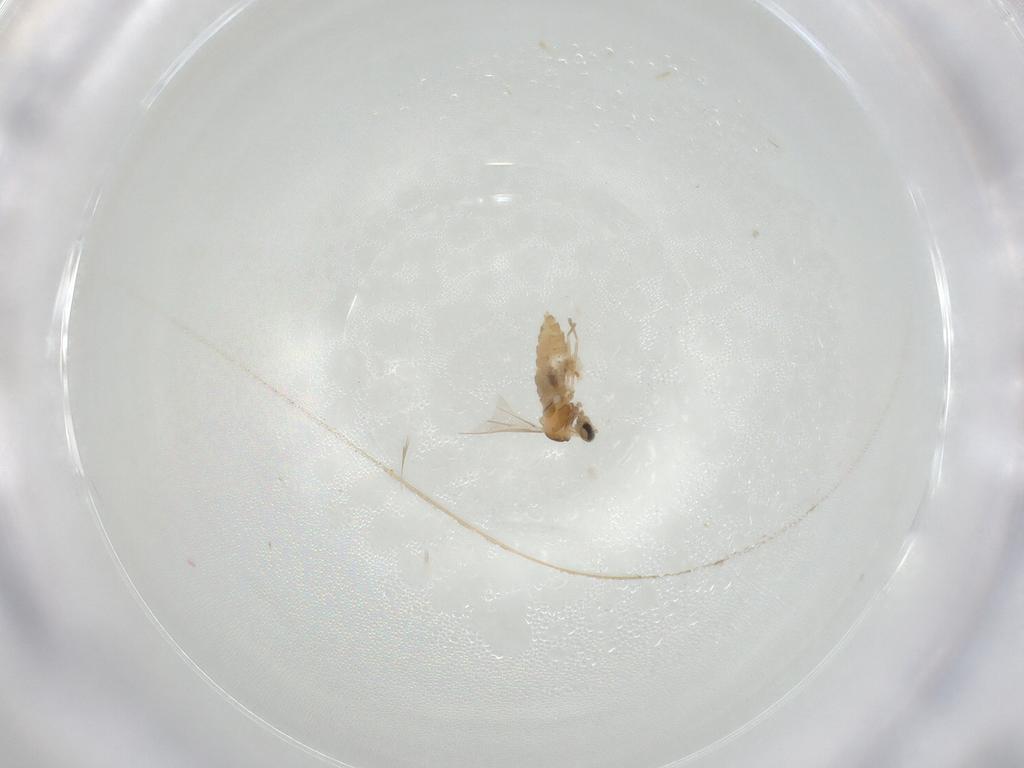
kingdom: Animalia
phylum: Arthropoda
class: Insecta
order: Diptera
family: Cecidomyiidae
